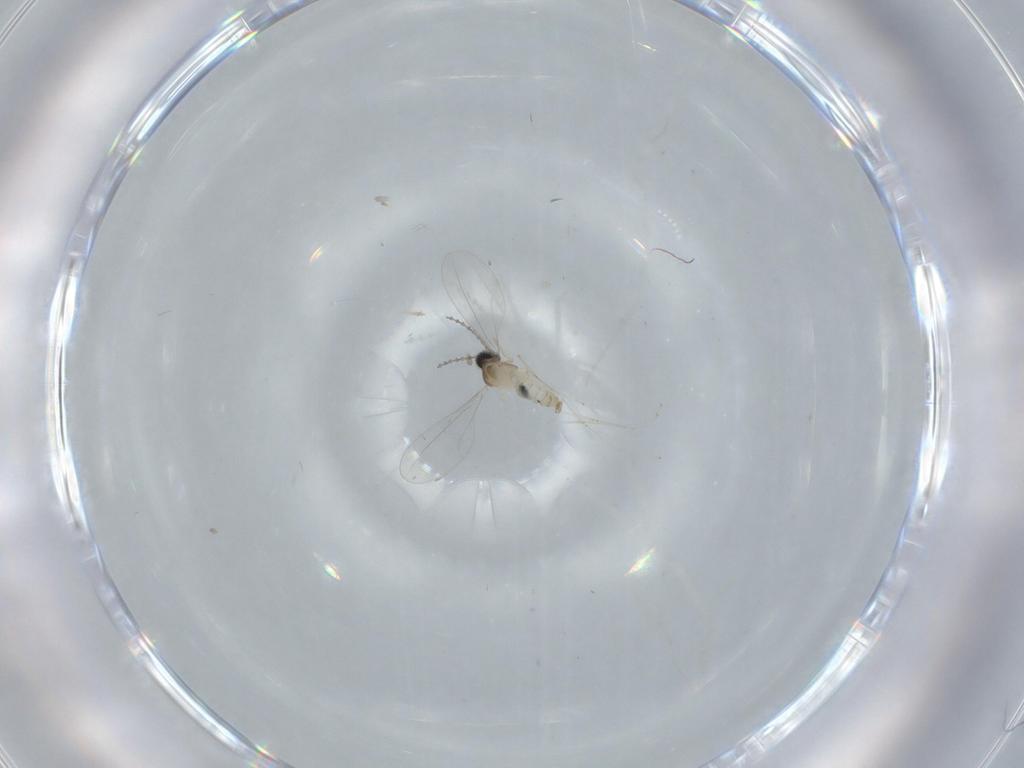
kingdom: Animalia
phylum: Arthropoda
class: Insecta
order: Diptera
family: Cecidomyiidae
